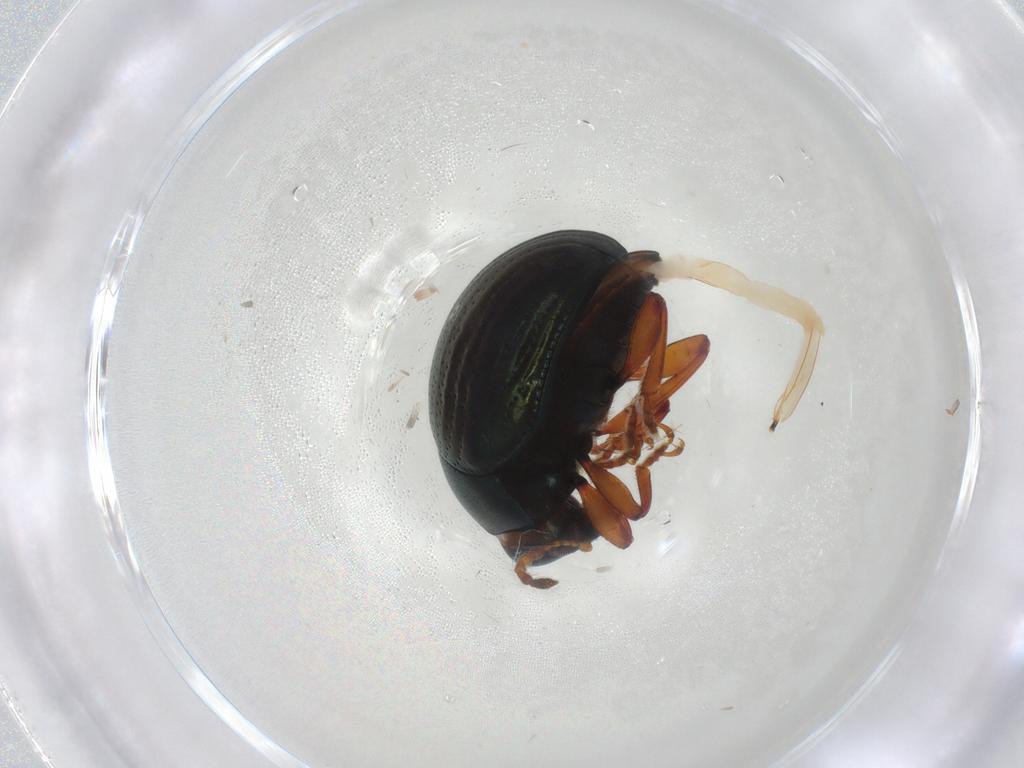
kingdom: Animalia
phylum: Arthropoda
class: Insecta
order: Coleoptera
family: Chrysomelidae
